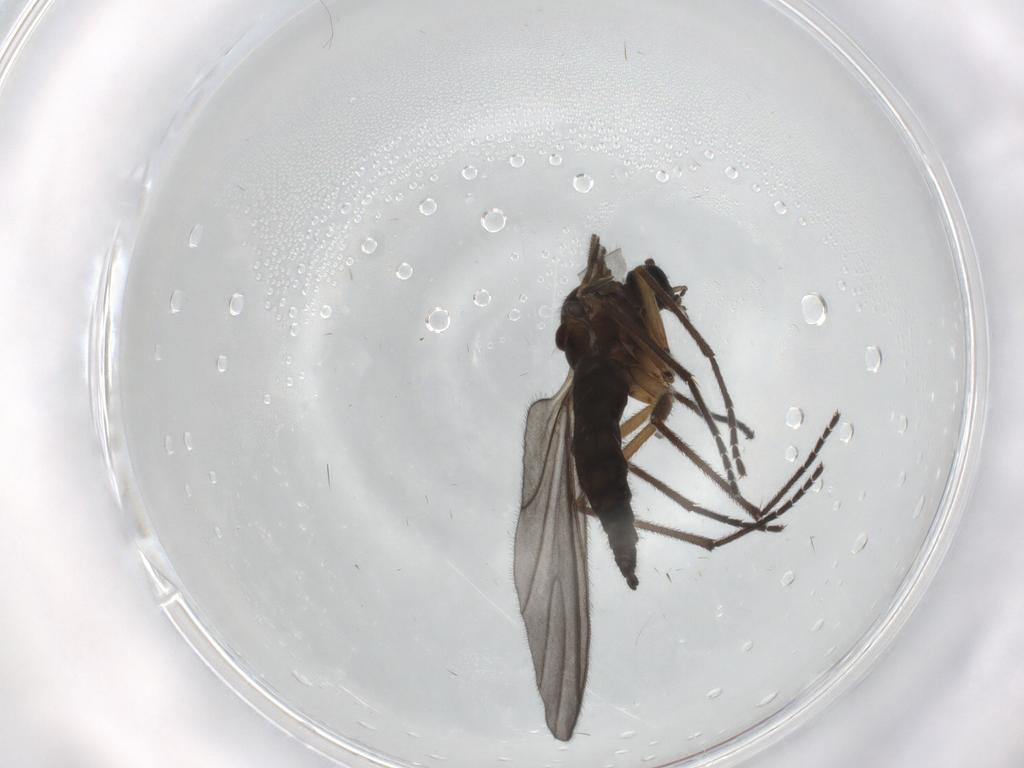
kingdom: Animalia
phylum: Arthropoda
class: Insecta
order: Diptera
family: Sciaridae
